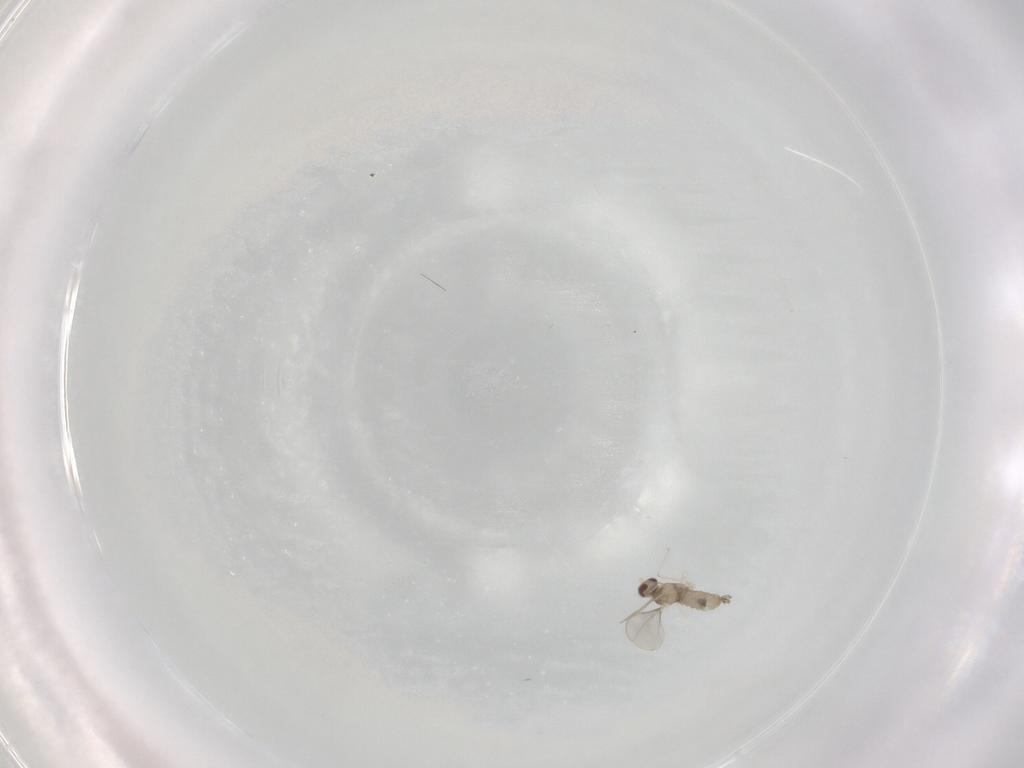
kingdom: Animalia
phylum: Arthropoda
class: Insecta
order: Diptera
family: Cecidomyiidae
